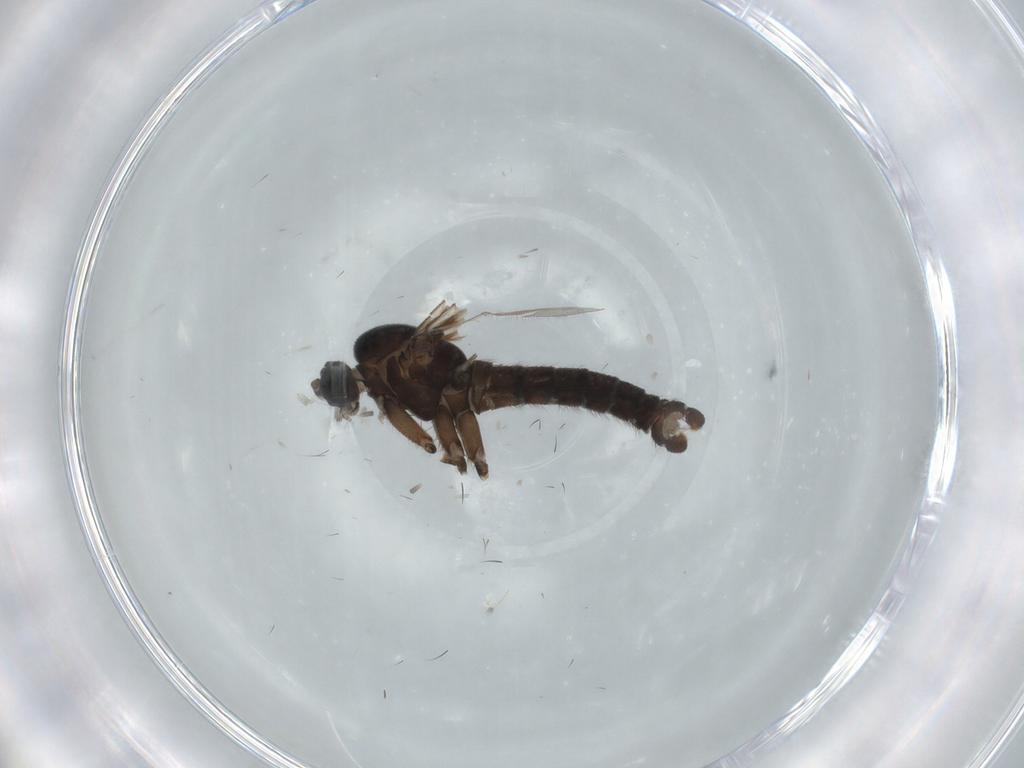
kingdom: Animalia
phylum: Arthropoda
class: Insecta
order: Diptera
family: Sciaridae
